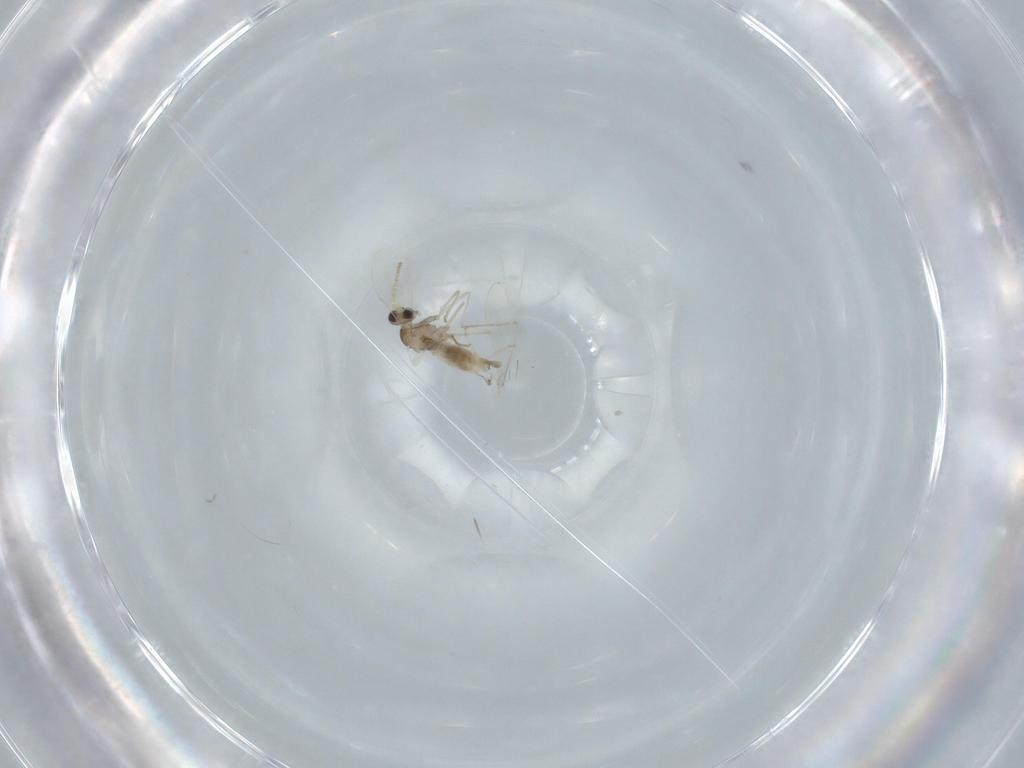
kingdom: Animalia
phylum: Arthropoda
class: Insecta
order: Diptera
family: Cecidomyiidae
